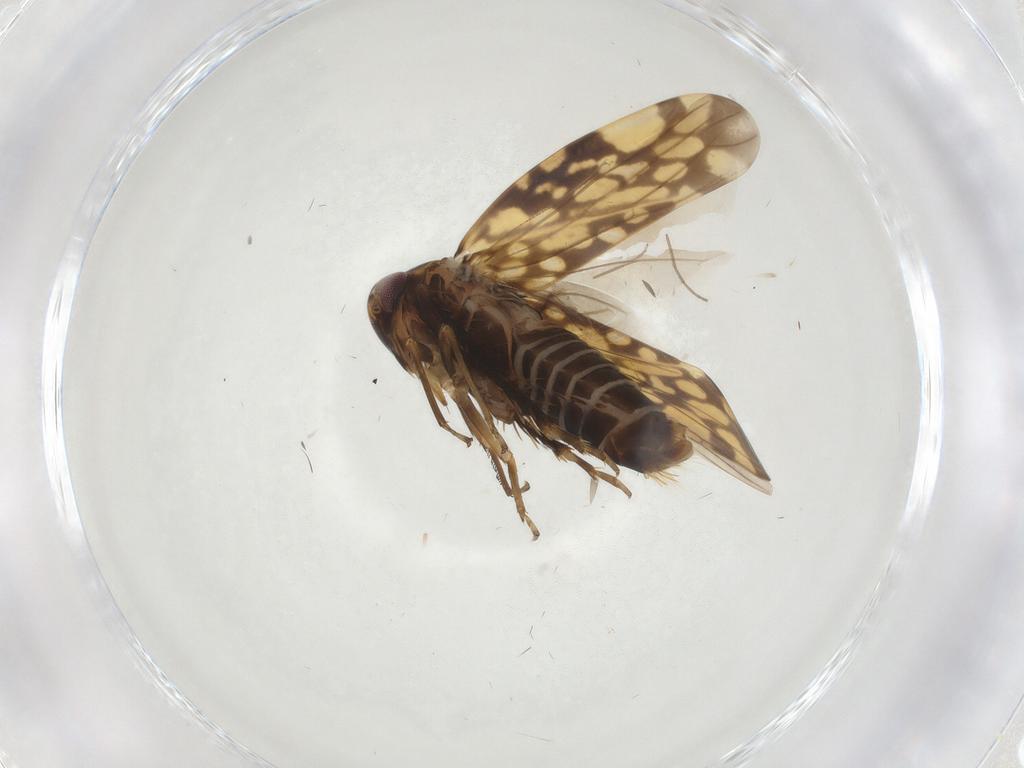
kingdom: Animalia
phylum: Arthropoda
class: Insecta
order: Hemiptera
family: Cicadellidae
